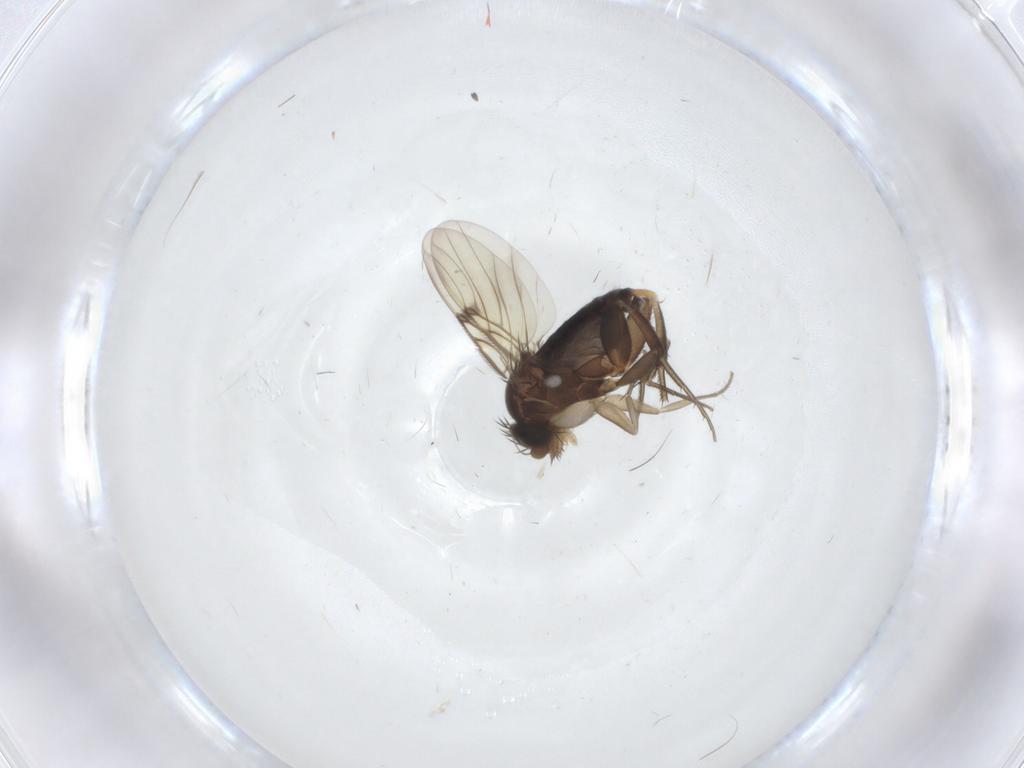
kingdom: Animalia
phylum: Arthropoda
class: Insecta
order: Diptera
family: Phoridae
